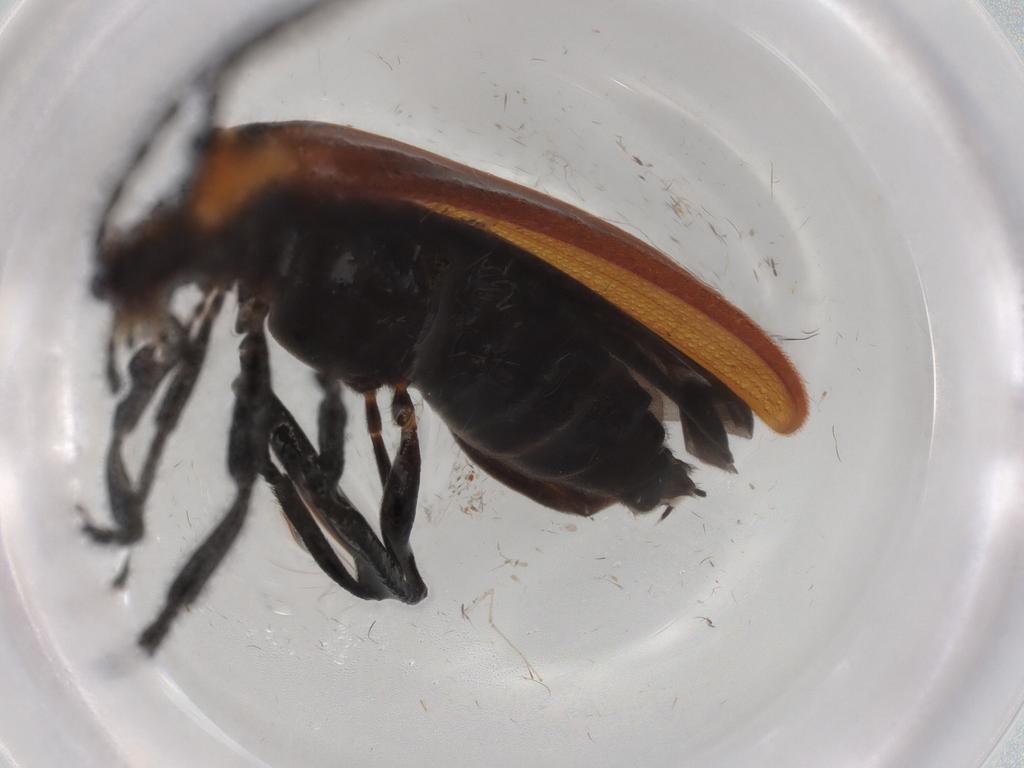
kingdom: Animalia
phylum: Arthropoda
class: Insecta
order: Coleoptera
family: Lycidae
